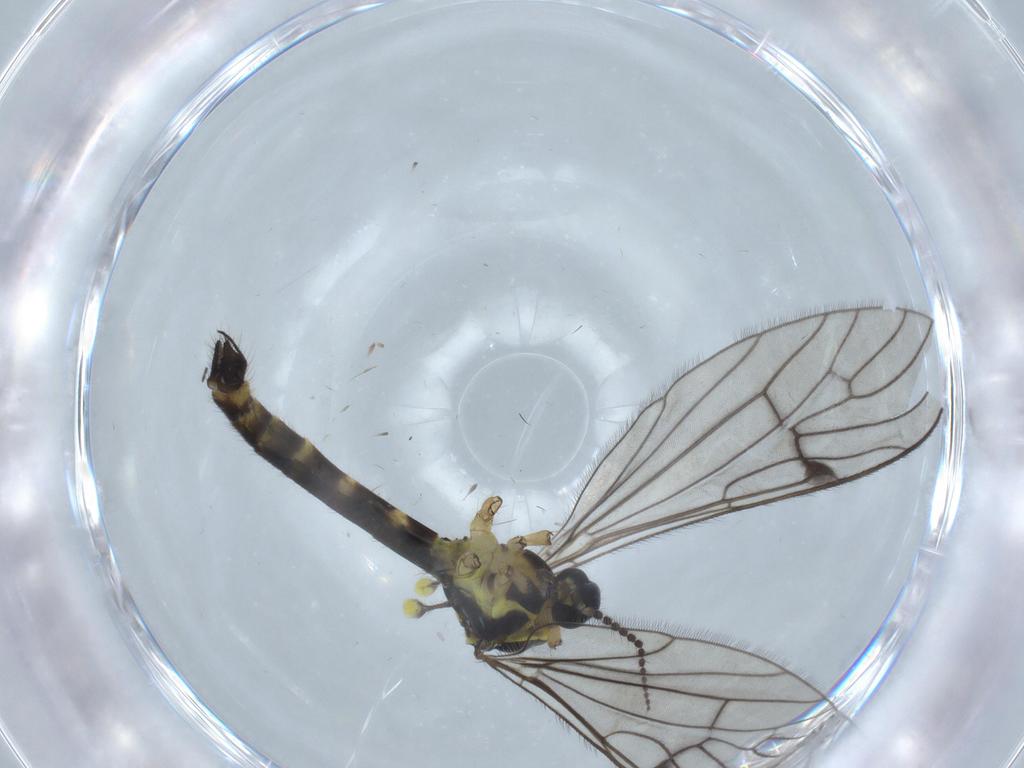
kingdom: Animalia
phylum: Arthropoda
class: Insecta
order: Diptera
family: Limoniidae
